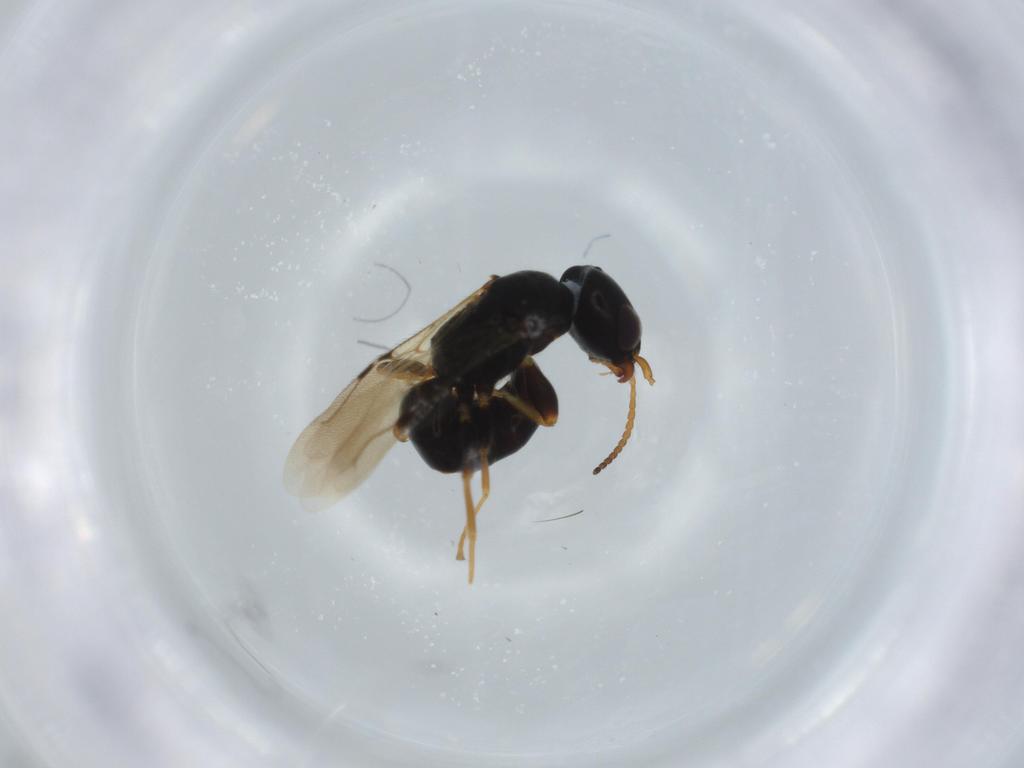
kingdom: Animalia
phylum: Arthropoda
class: Insecta
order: Hymenoptera
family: Bethylidae
